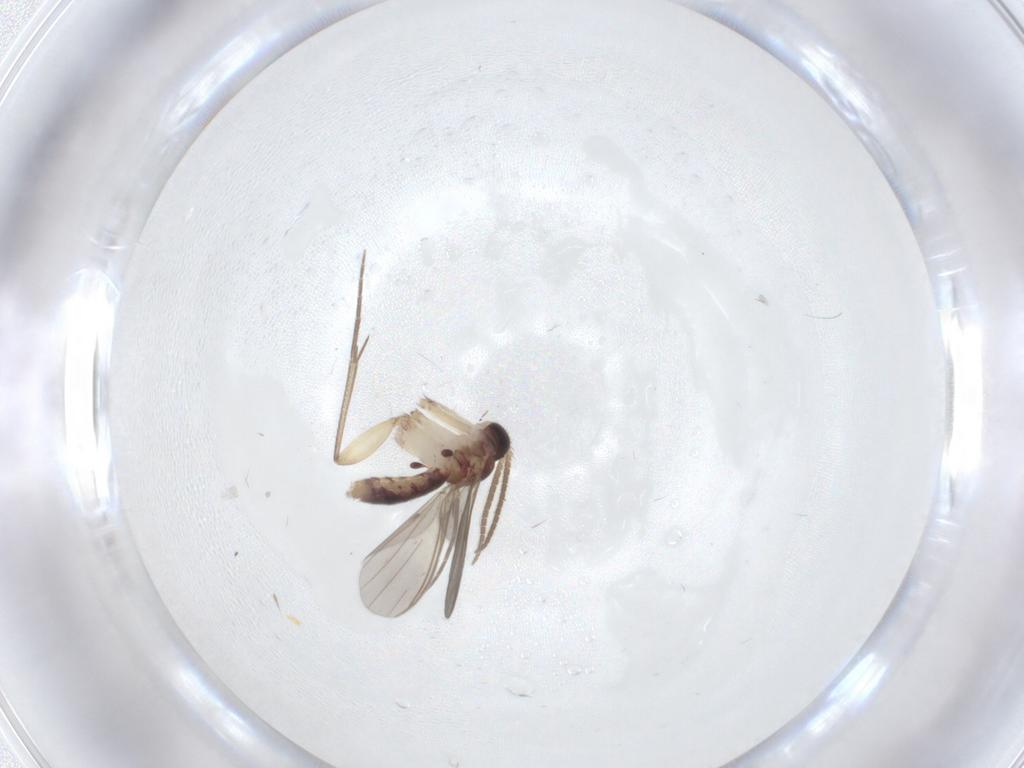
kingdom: Animalia
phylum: Arthropoda
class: Insecta
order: Diptera
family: Mycetophilidae
